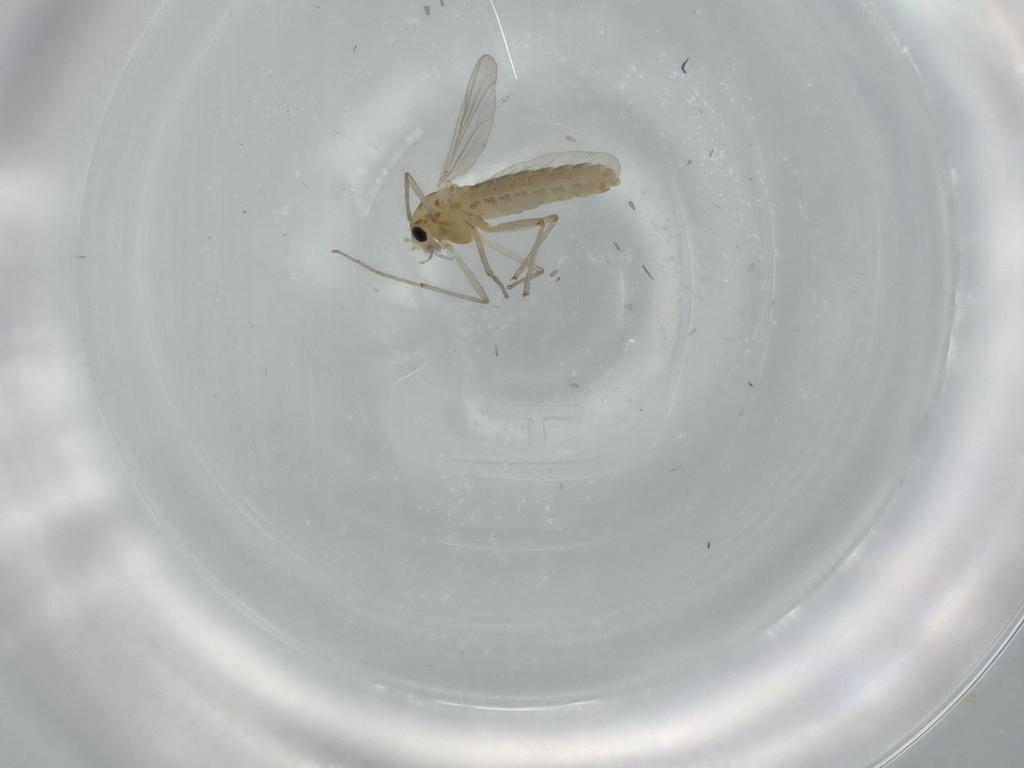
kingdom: Animalia
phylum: Arthropoda
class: Insecta
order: Diptera
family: Chironomidae
